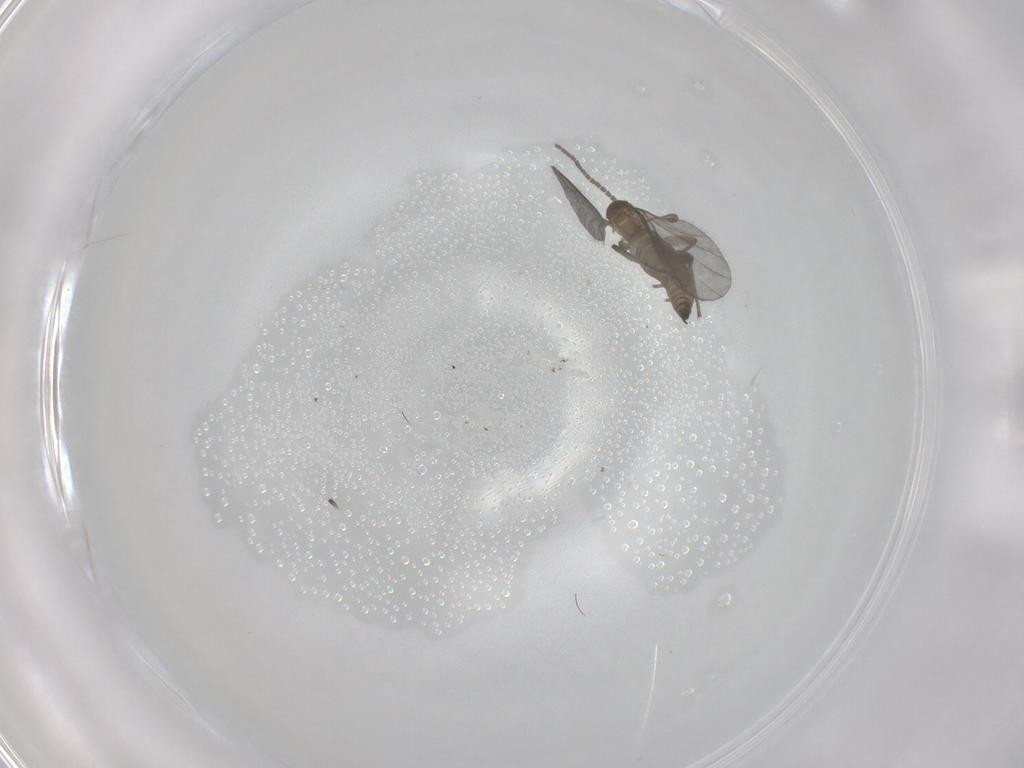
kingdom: Animalia
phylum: Arthropoda
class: Insecta
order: Diptera
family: Sciaridae
